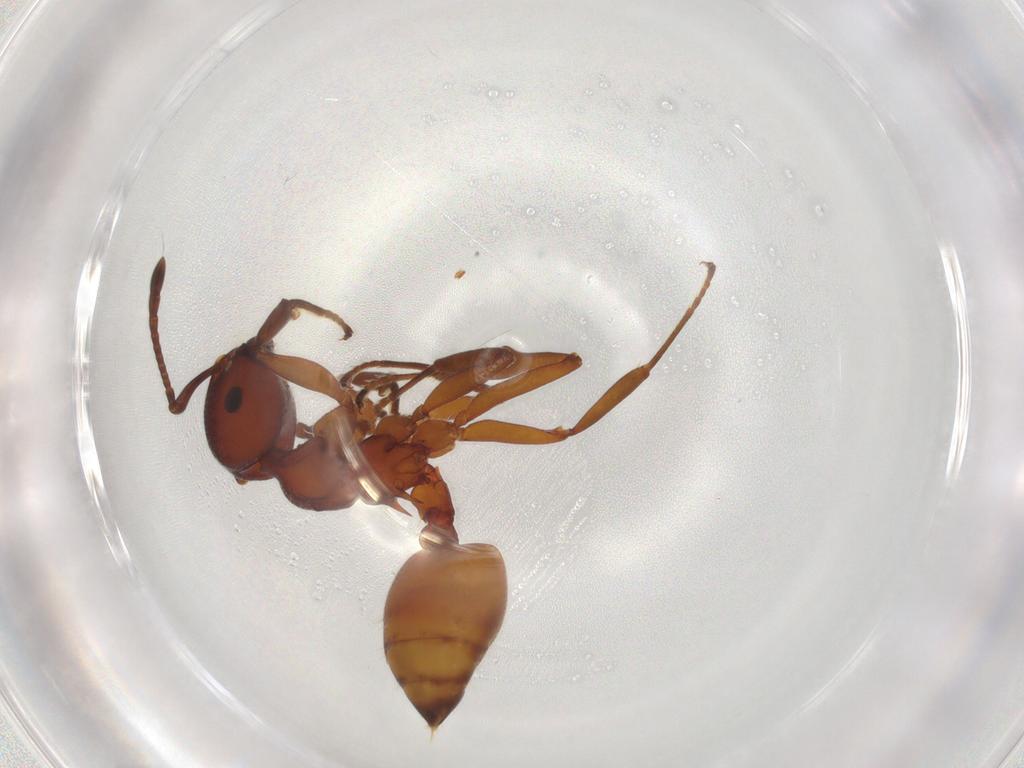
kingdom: Animalia
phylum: Arthropoda
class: Insecta
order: Hymenoptera
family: Formicidae
